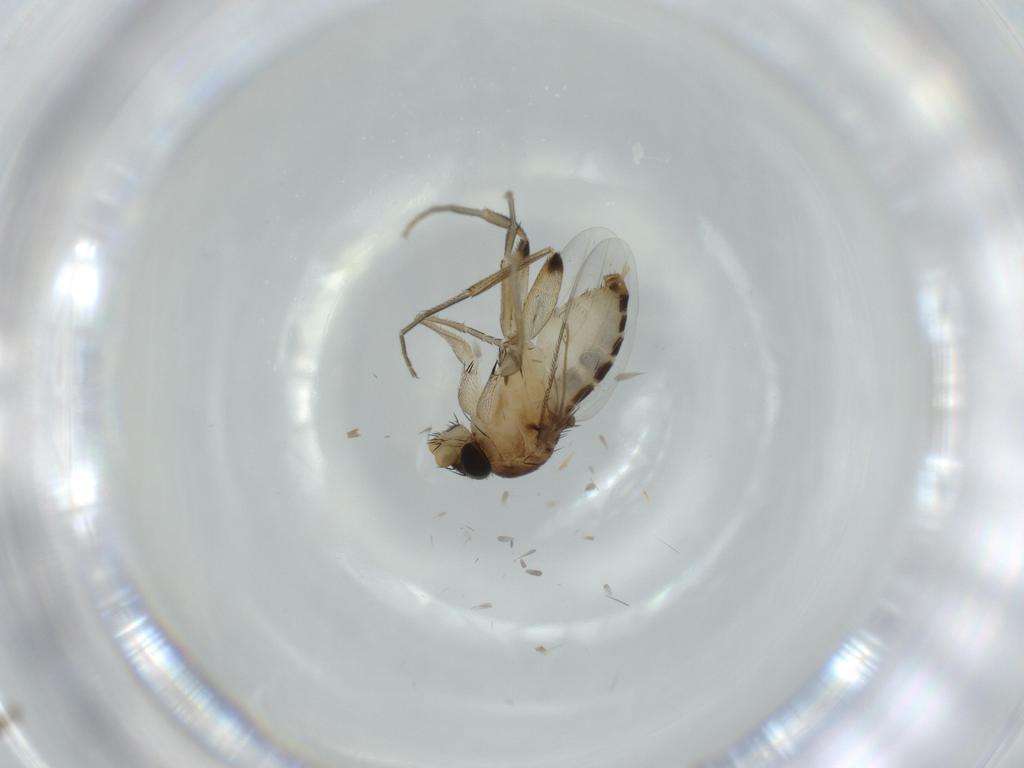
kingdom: Animalia
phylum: Arthropoda
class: Insecta
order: Diptera
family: Phoridae
